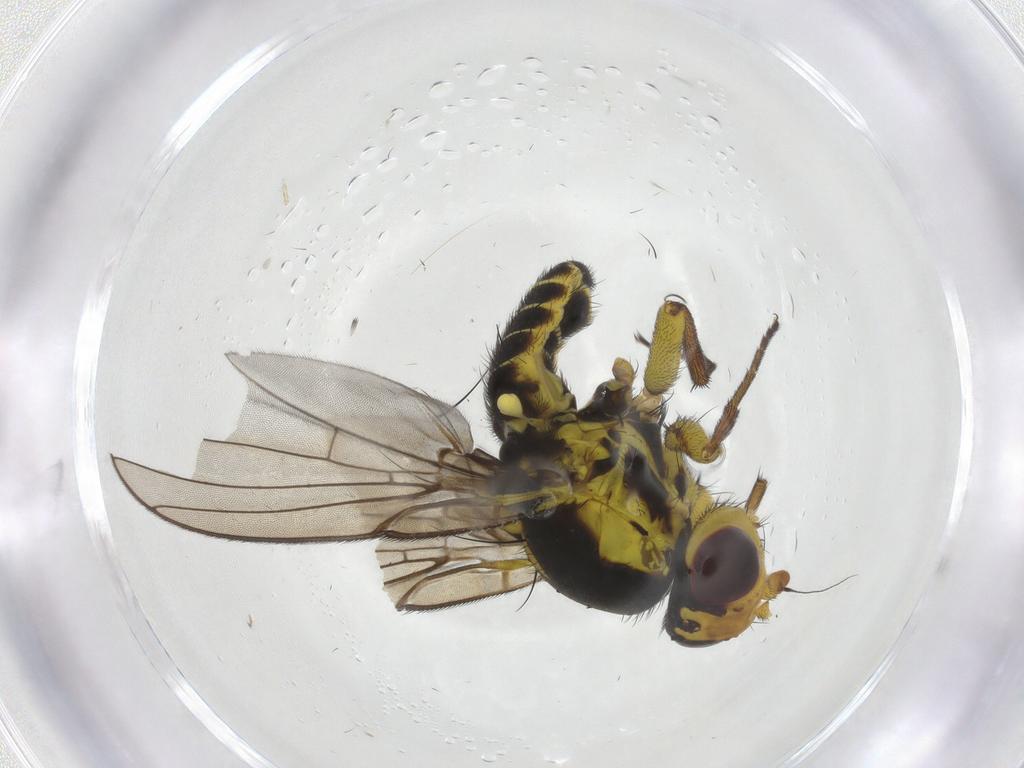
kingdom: Animalia
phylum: Arthropoda
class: Insecta
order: Diptera
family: Agromyzidae
